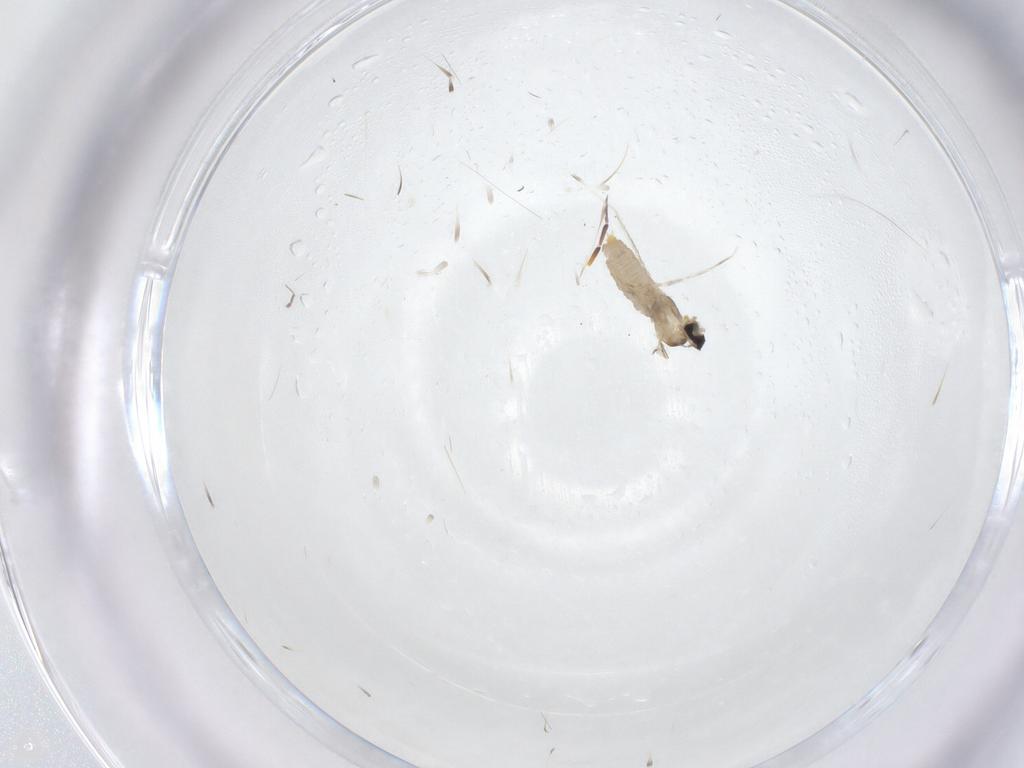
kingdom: Animalia
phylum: Arthropoda
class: Insecta
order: Diptera
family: Cecidomyiidae
